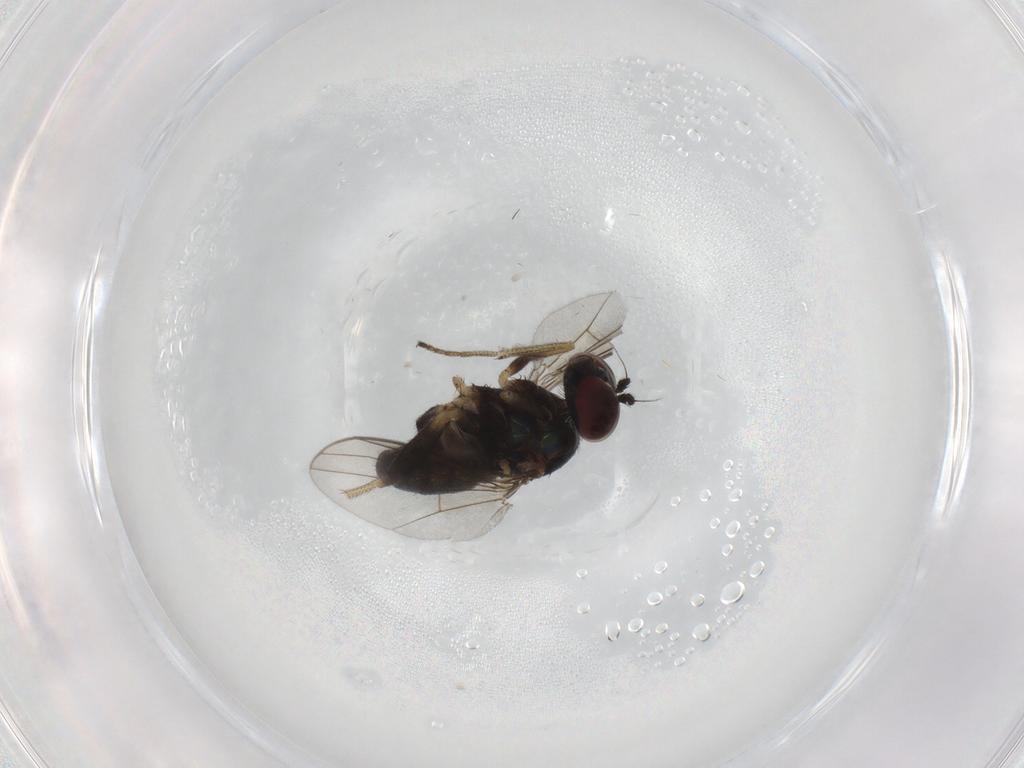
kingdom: Animalia
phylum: Arthropoda
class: Insecta
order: Diptera
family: Dolichopodidae
